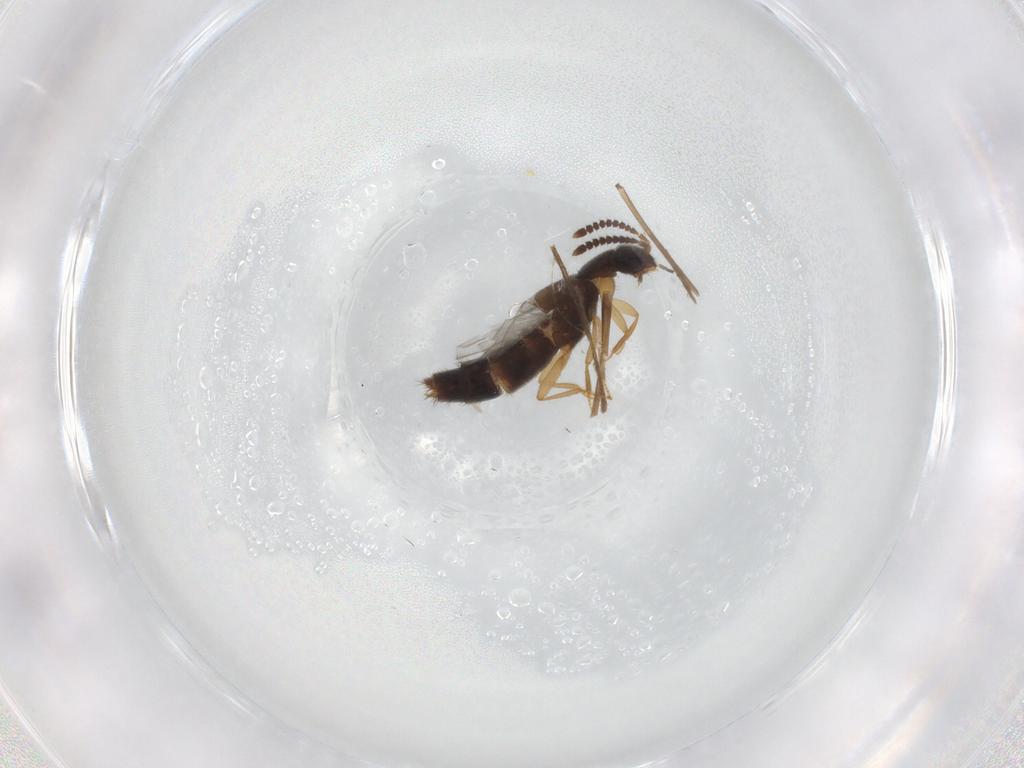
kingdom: Animalia
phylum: Arthropoda
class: Insecta
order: Coleoptera
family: Staphylinidae
